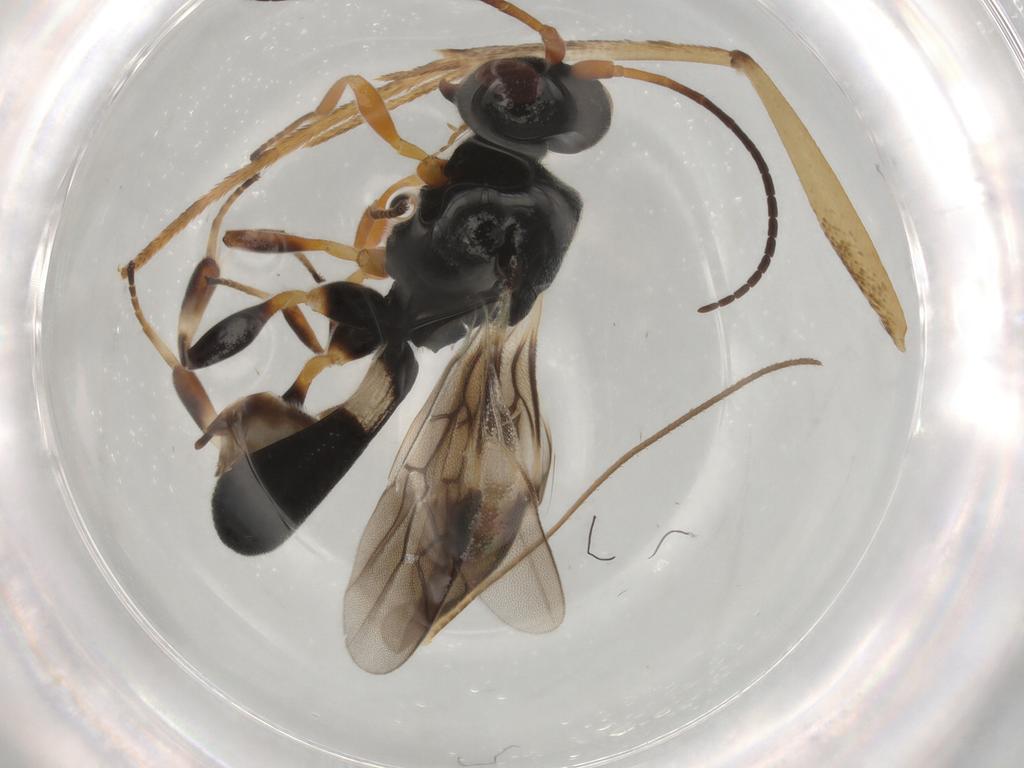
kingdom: Animalia
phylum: Arthropoda
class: Insecta
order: Hymenoptera
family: Braconidae
